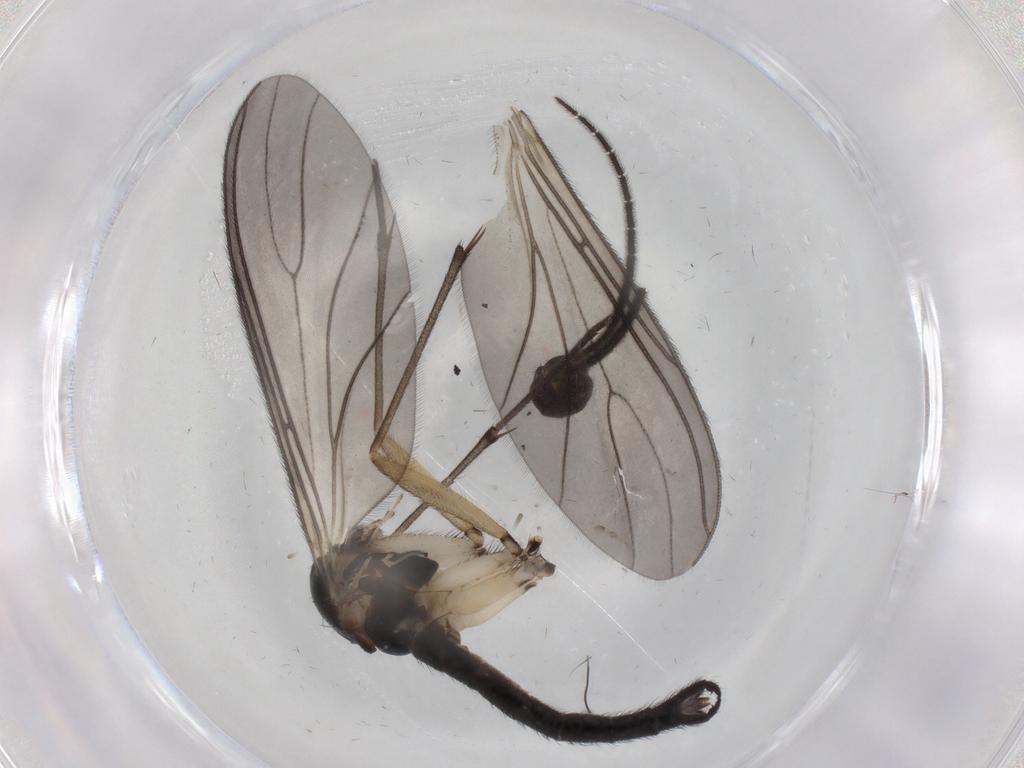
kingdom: Animalia
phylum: Arthropoda
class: Insecta
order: Diptera
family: Sciaridae
